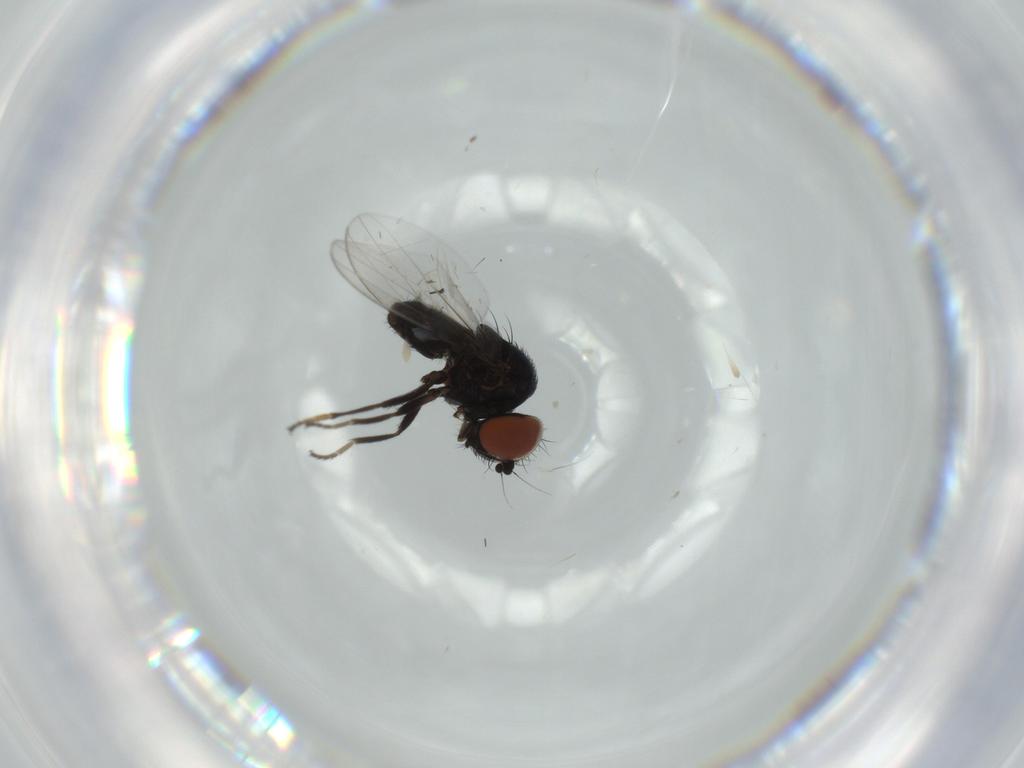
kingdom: Animalia
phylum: Arthropoda
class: Insecta
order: Diptera
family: Milichiidae
